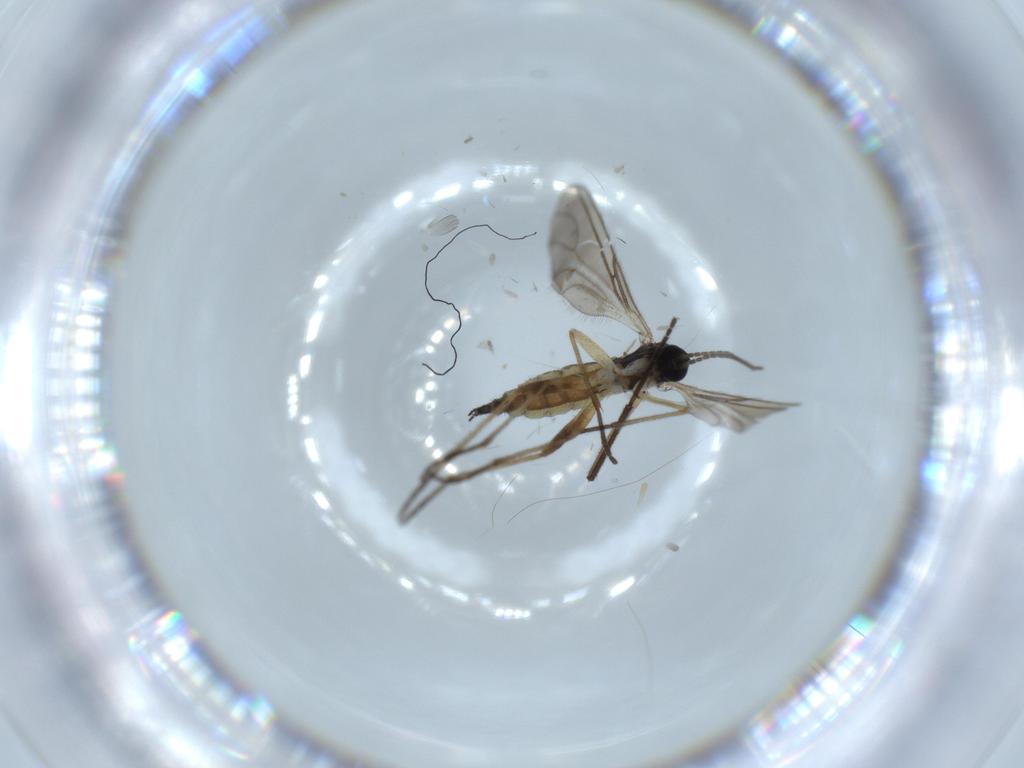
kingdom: Animalia
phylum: Arthropoda
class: Insecta
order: Diptera
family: Sciaridae
